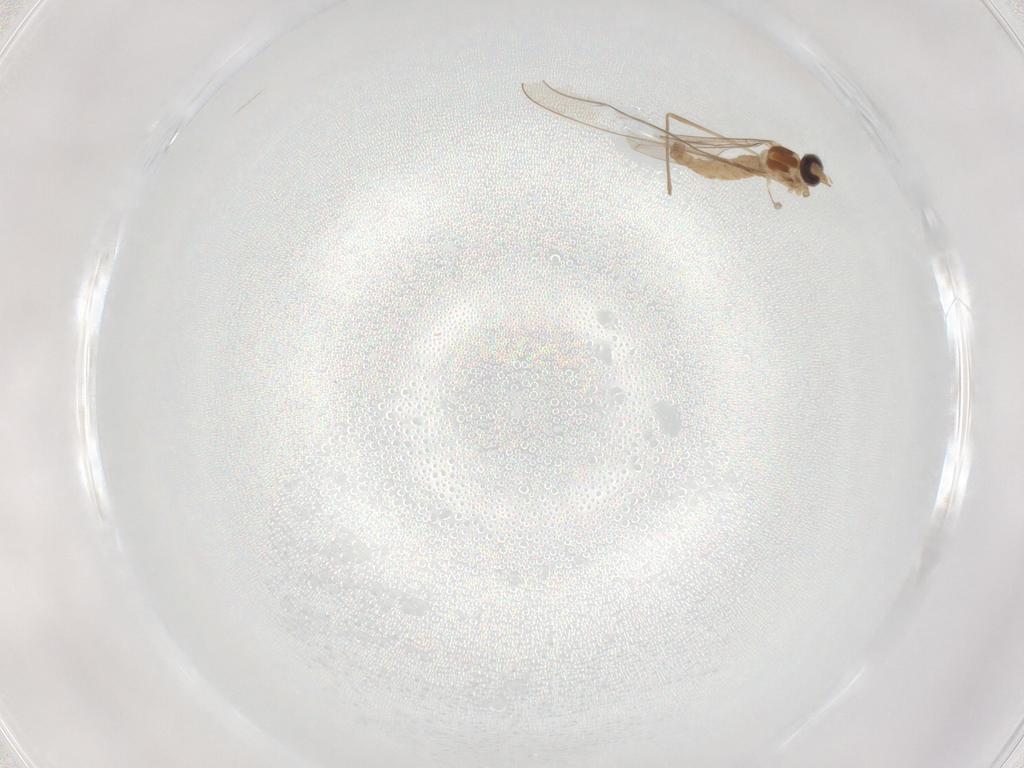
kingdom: Animalia
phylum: Arthropoda
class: Insecta
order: Diptera
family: Cecidomyiidae
